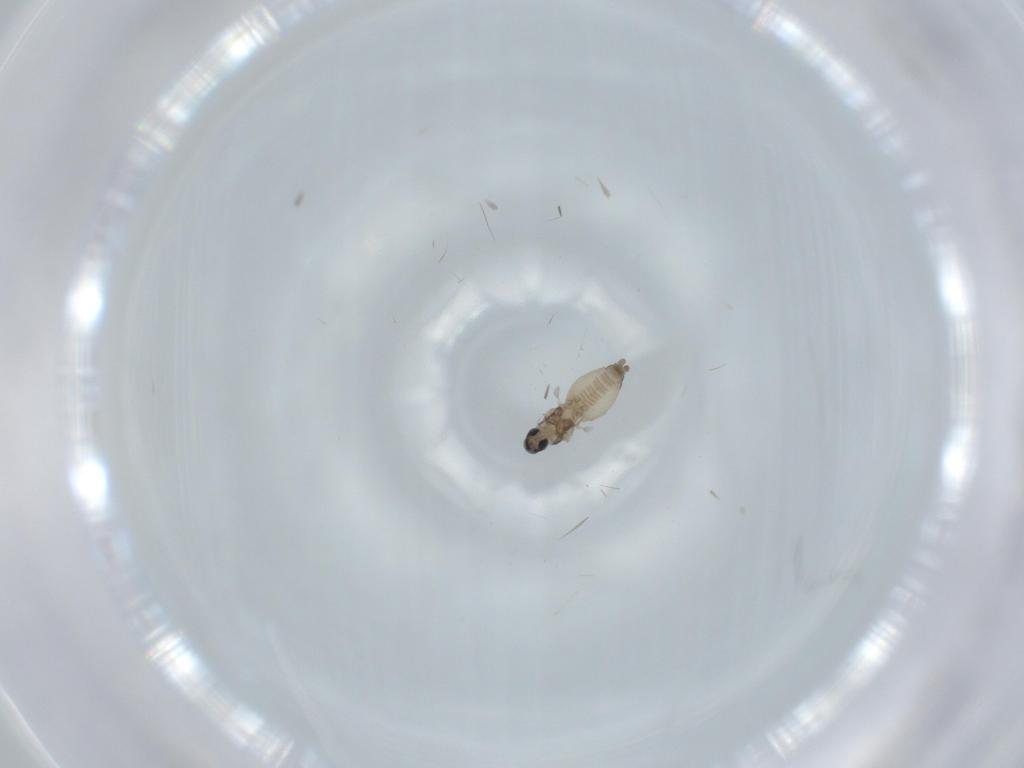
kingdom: Animalia
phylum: Arthropoda
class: Insecta
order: Diptera
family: Cecidomyiidae
